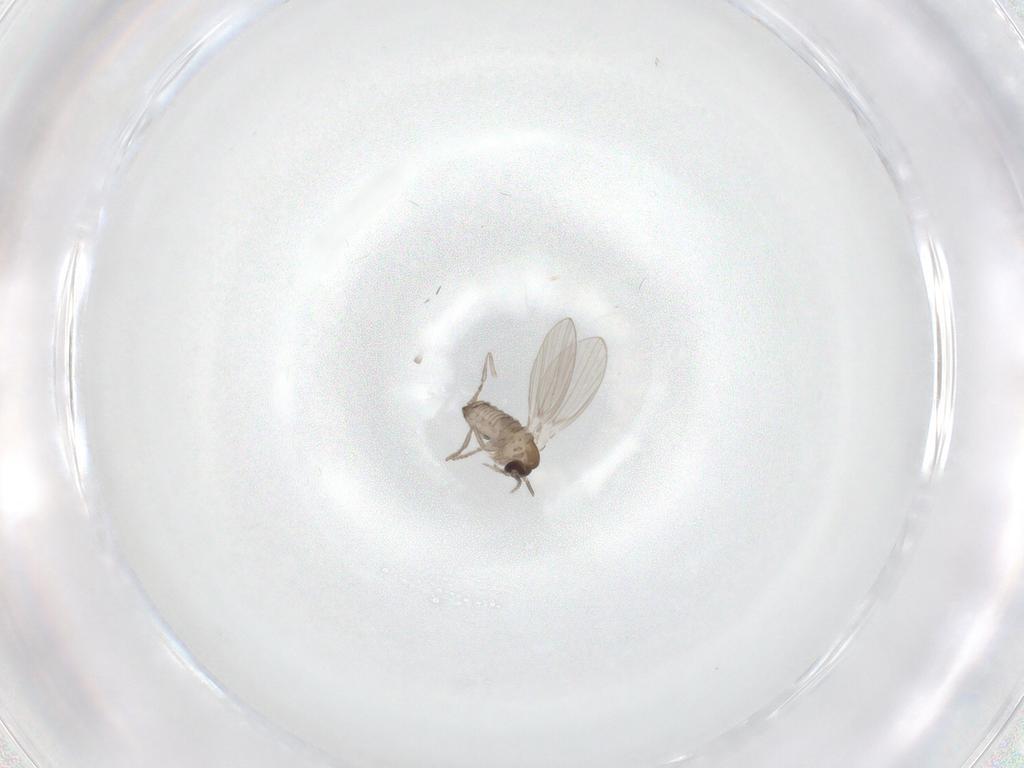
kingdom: Animalia
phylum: Arthropoda
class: Insecta
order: Diptera
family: Psychodidae
